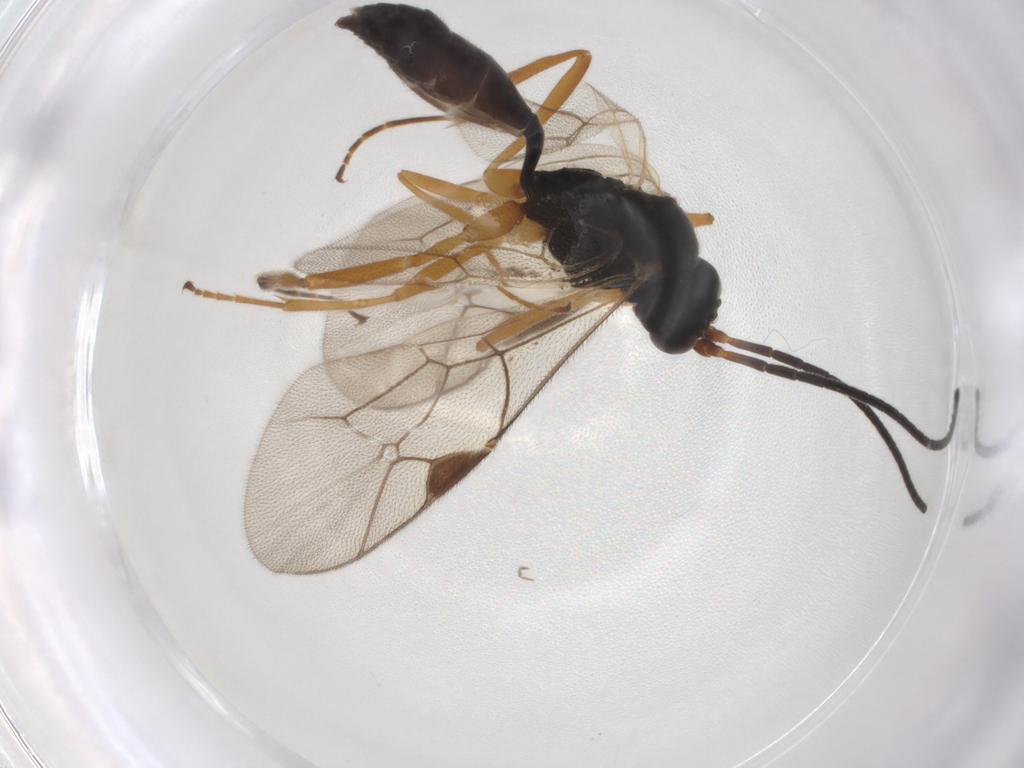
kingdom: Animalia
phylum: Arthropoda
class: Insecta
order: Hymenoptera
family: Ichneumonidae
